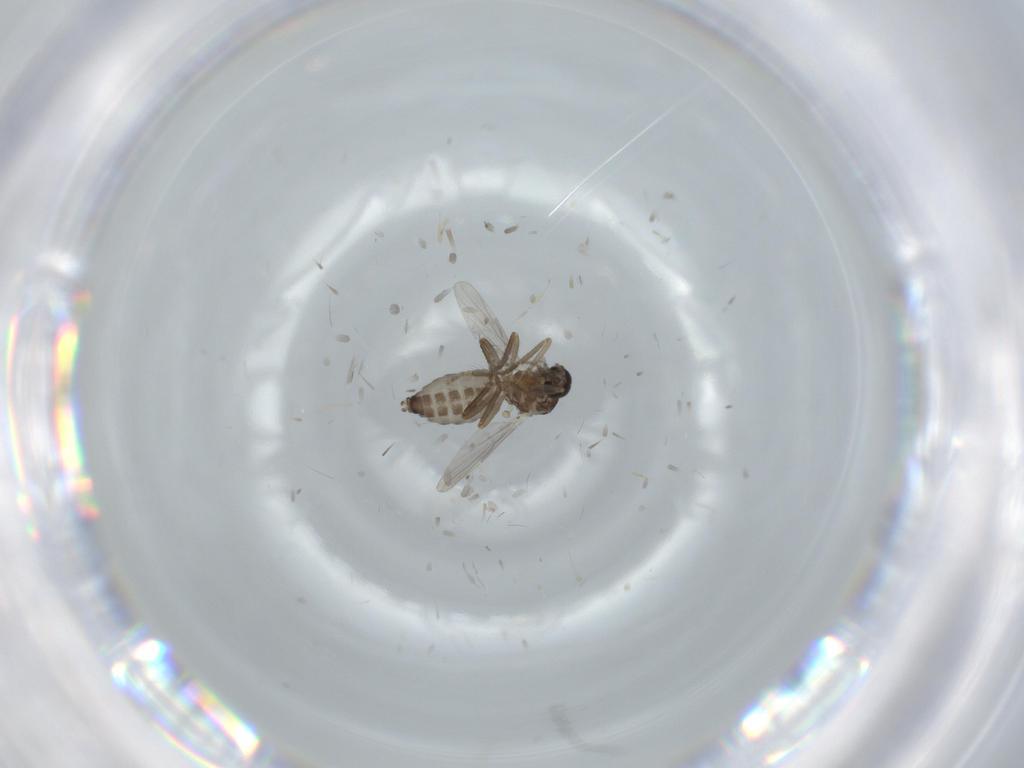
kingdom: Animalia
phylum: Arthropoda
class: Insecta
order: Diptera
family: Ceratopogonidae
